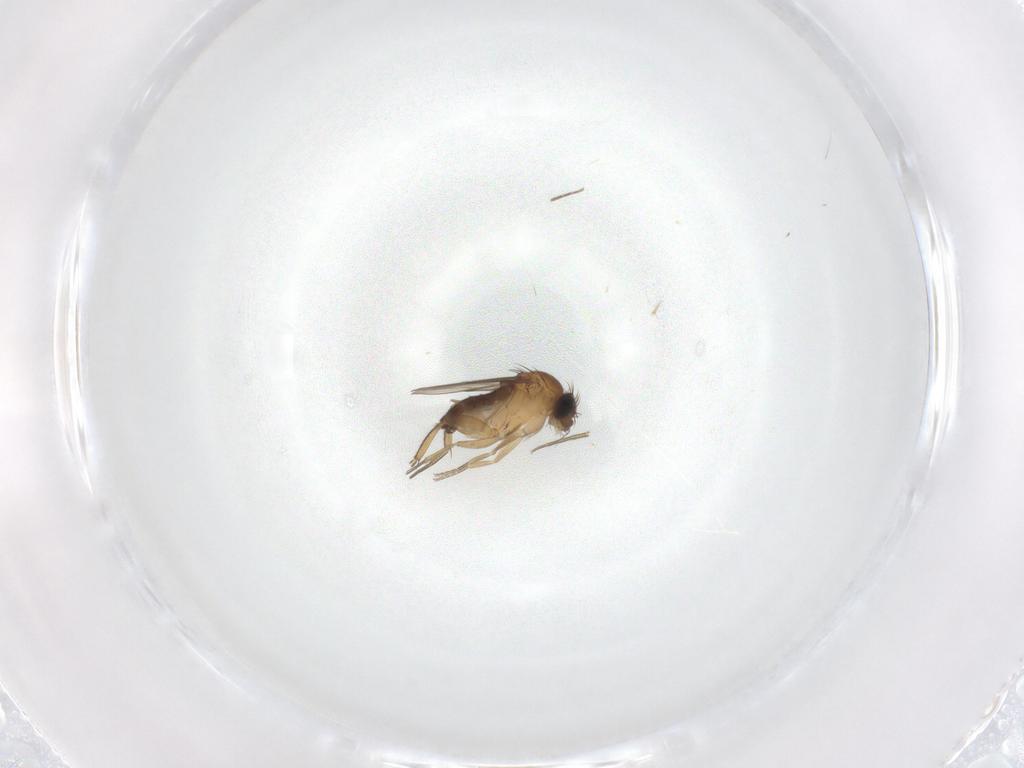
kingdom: Animalia
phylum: Arthropoda
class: Insecta
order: Diptera
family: Phoridae
